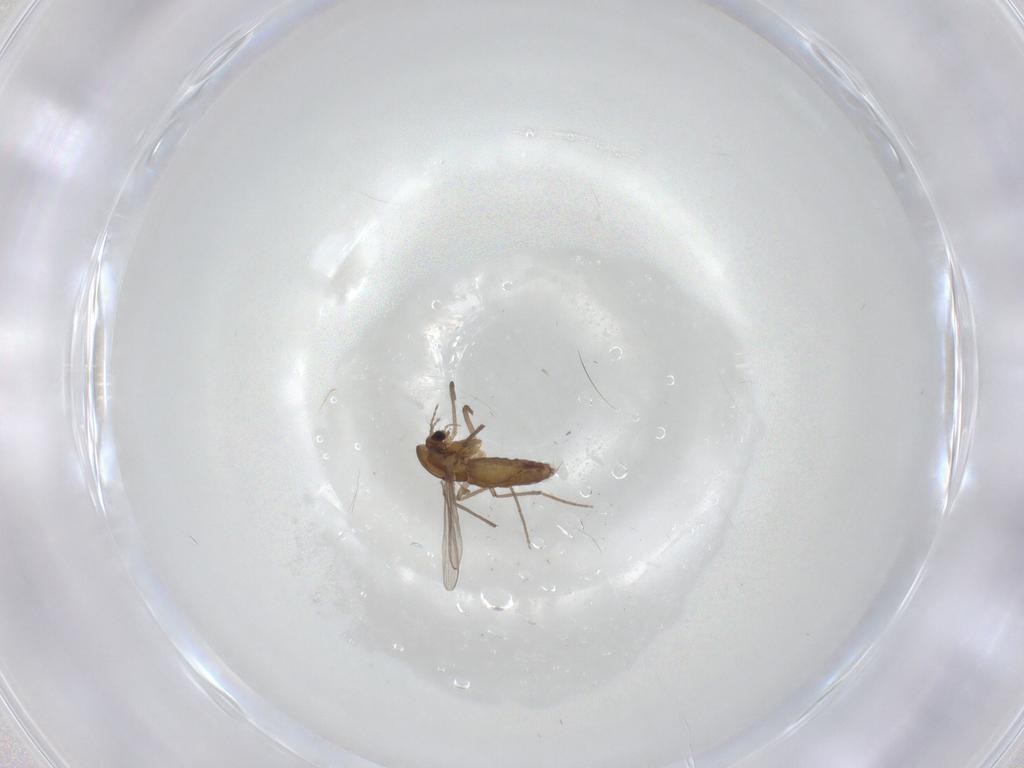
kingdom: Animalia
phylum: Arthropoda
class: Insecta
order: Diptera
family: Chironomidae
